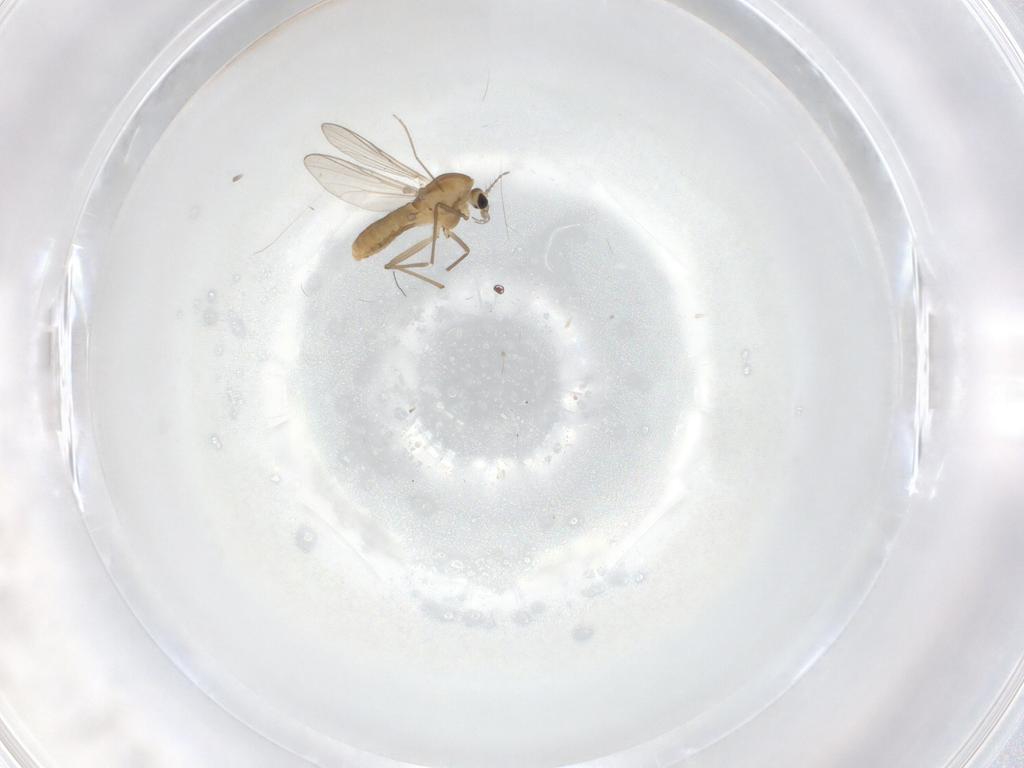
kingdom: Animalia
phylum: Arthropoda
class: Insecta
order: Diptera
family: Chironomidae
